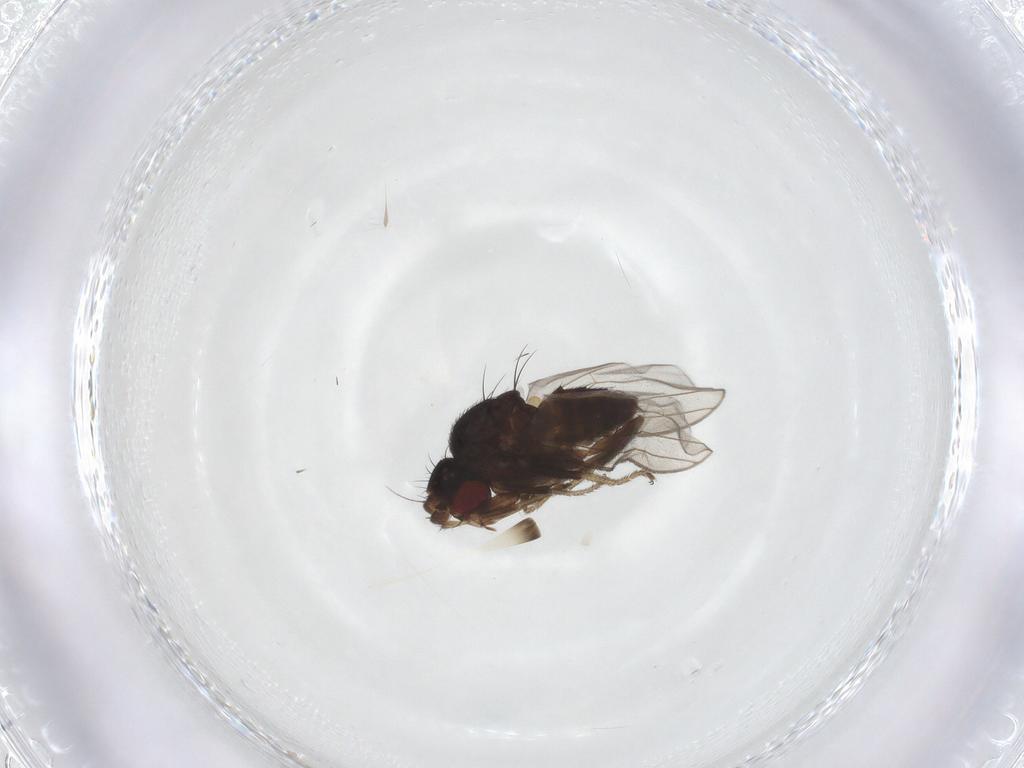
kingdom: Animalia
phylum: Arthropoda
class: Insecta
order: Diptera
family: Milichiidae
